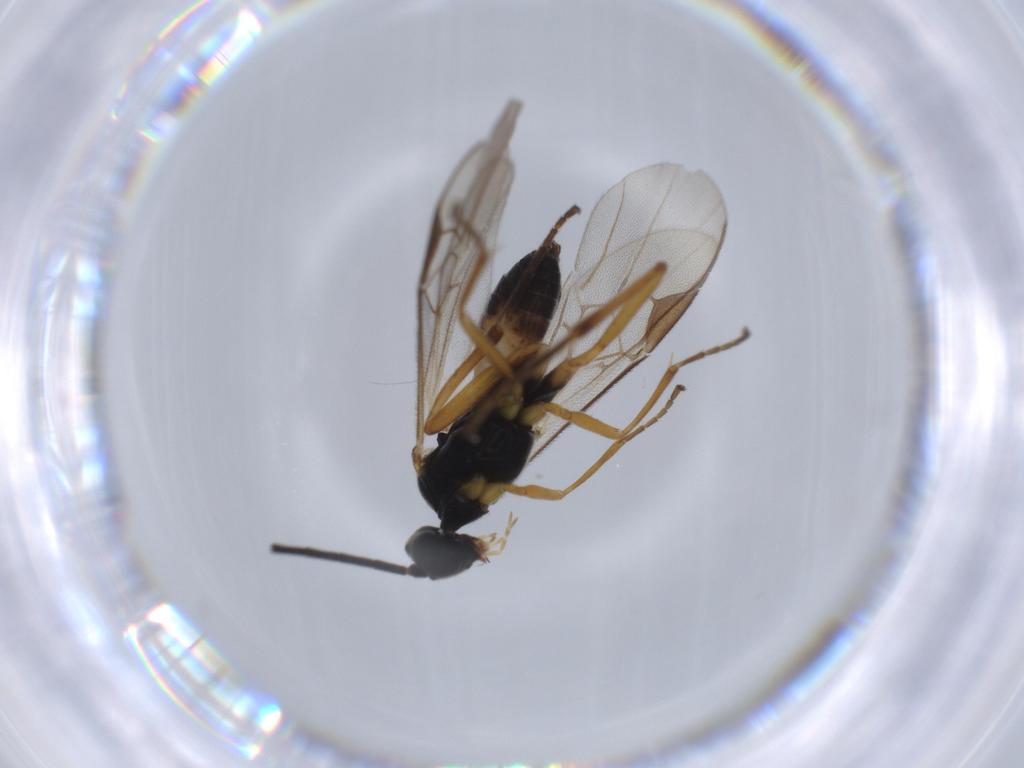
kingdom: Animalia
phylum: Arthropoda
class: Insecta
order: Hymenoptera
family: Braconidae
